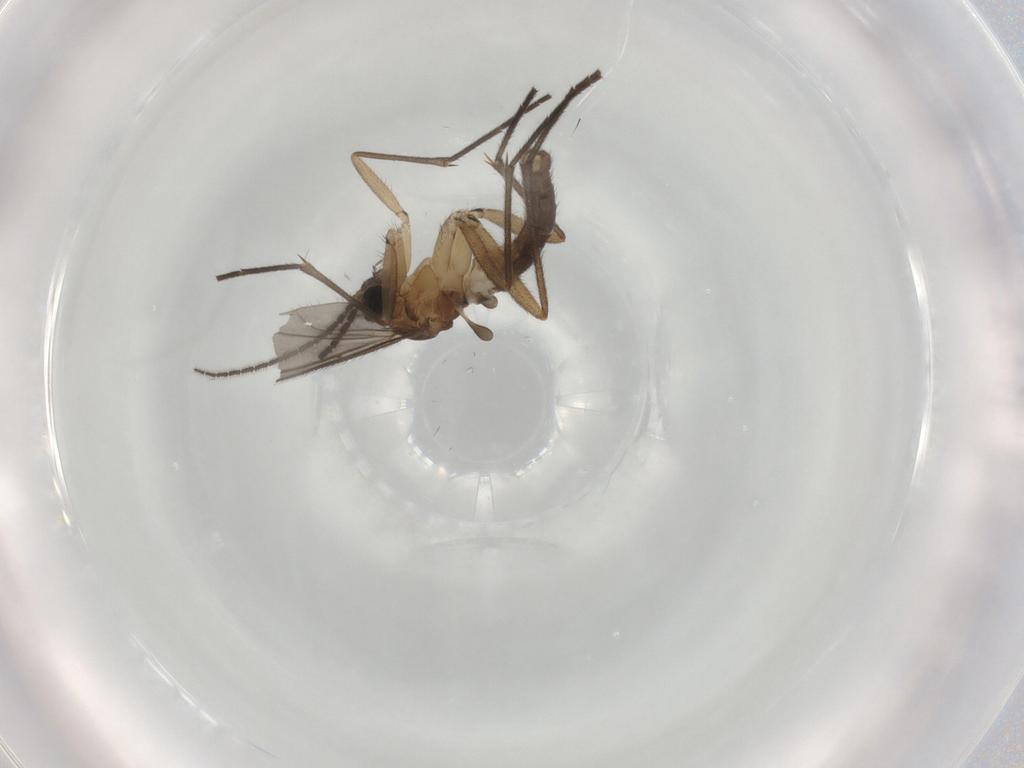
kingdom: Animalia
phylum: Arthropoda
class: Insecta
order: Diptera
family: Sciaridae
